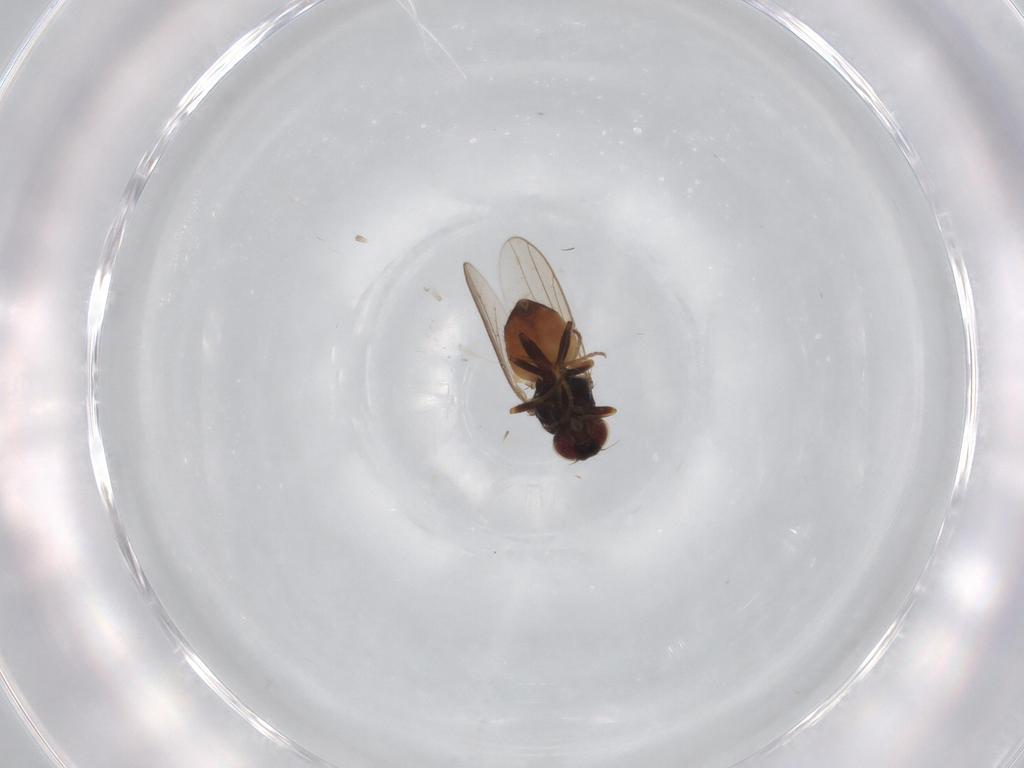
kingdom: Animalia
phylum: Arthropoda
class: Insecta
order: Diptera
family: Chloropidae
